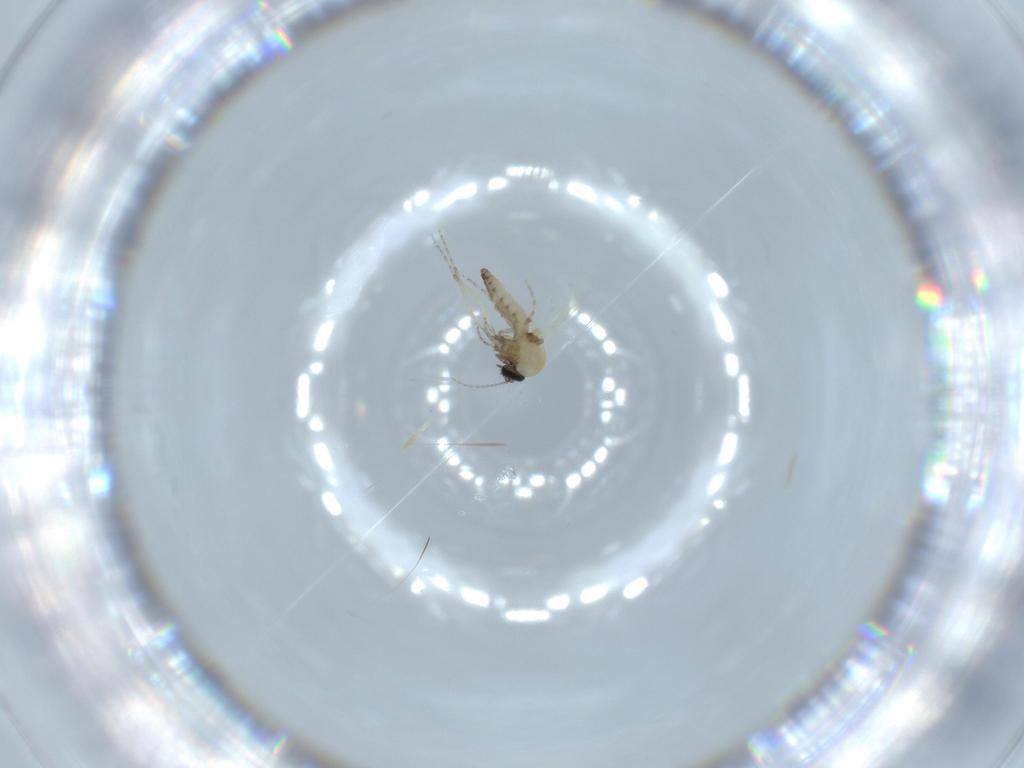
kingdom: Animalia
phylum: Arthropoda
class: Insecta
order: Diptera
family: Ceratopogonidae
